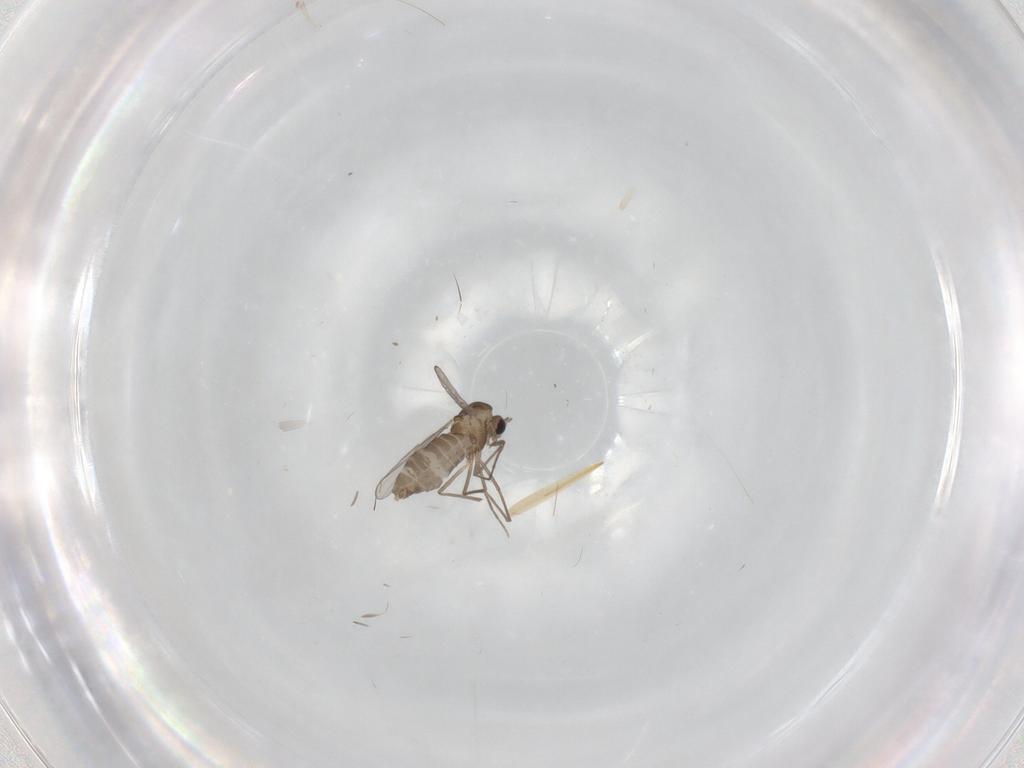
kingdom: Animalia
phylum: Arthropoda
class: Insecta
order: Diptera
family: Chironomidae
